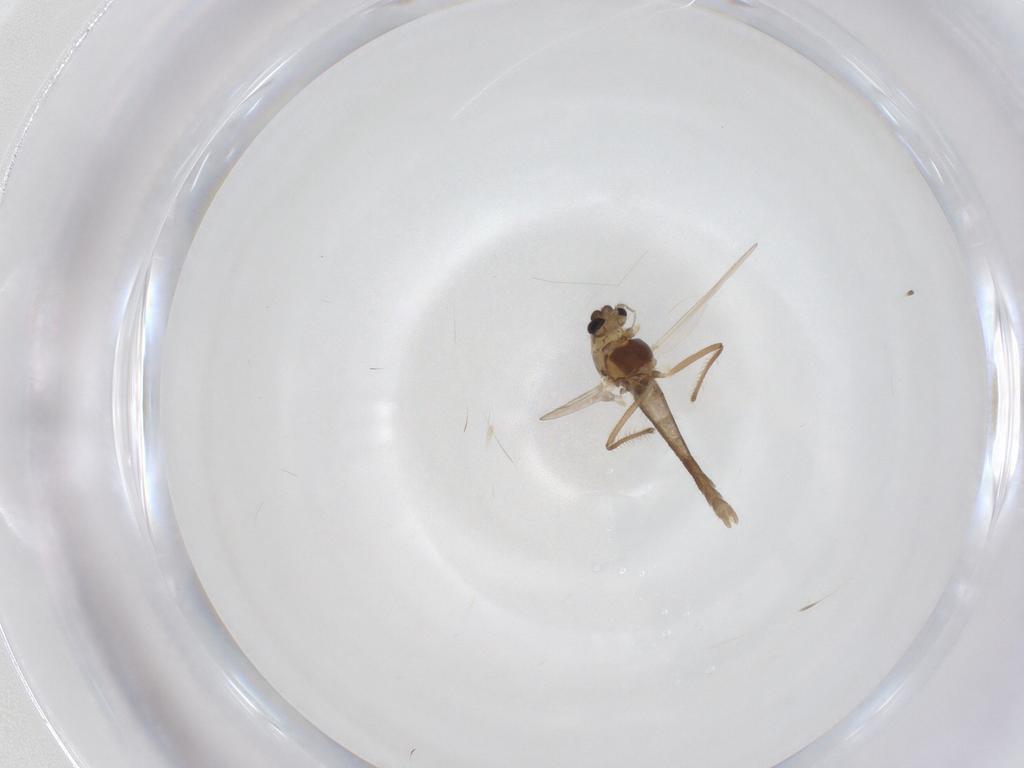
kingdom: Animalia
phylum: Arthropoda
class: Insecta
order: Diptera
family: Chironomidae
